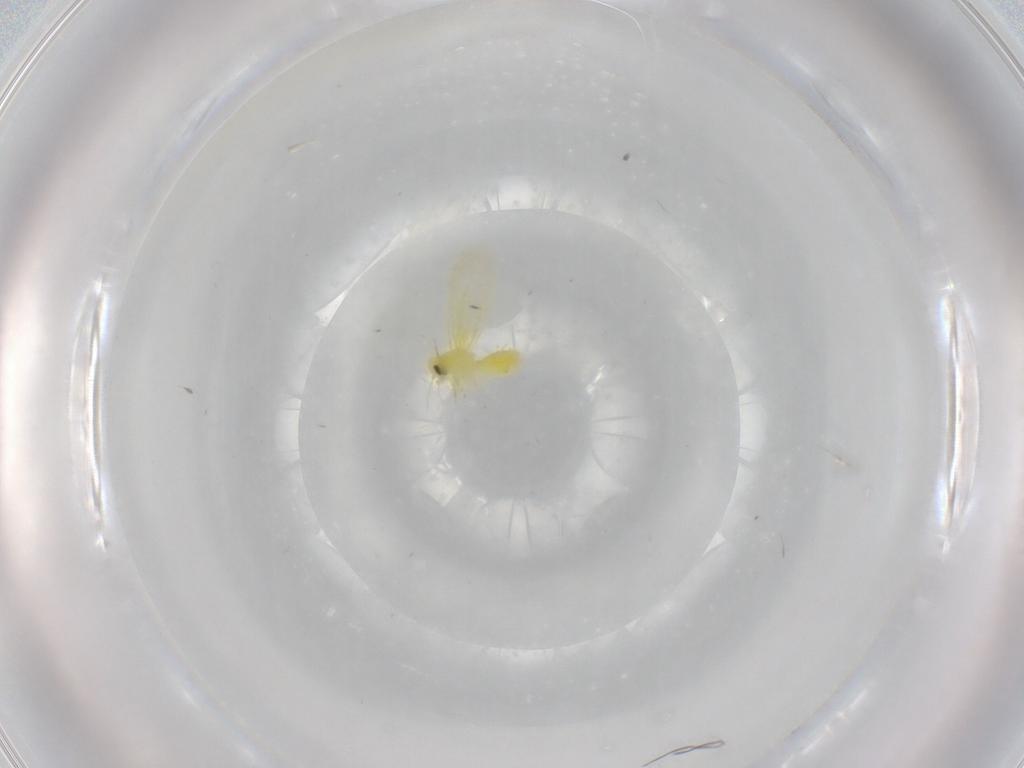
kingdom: Animalia
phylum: Arthropoda
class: Insecta
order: Hemiptera
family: Aleyrodidae
